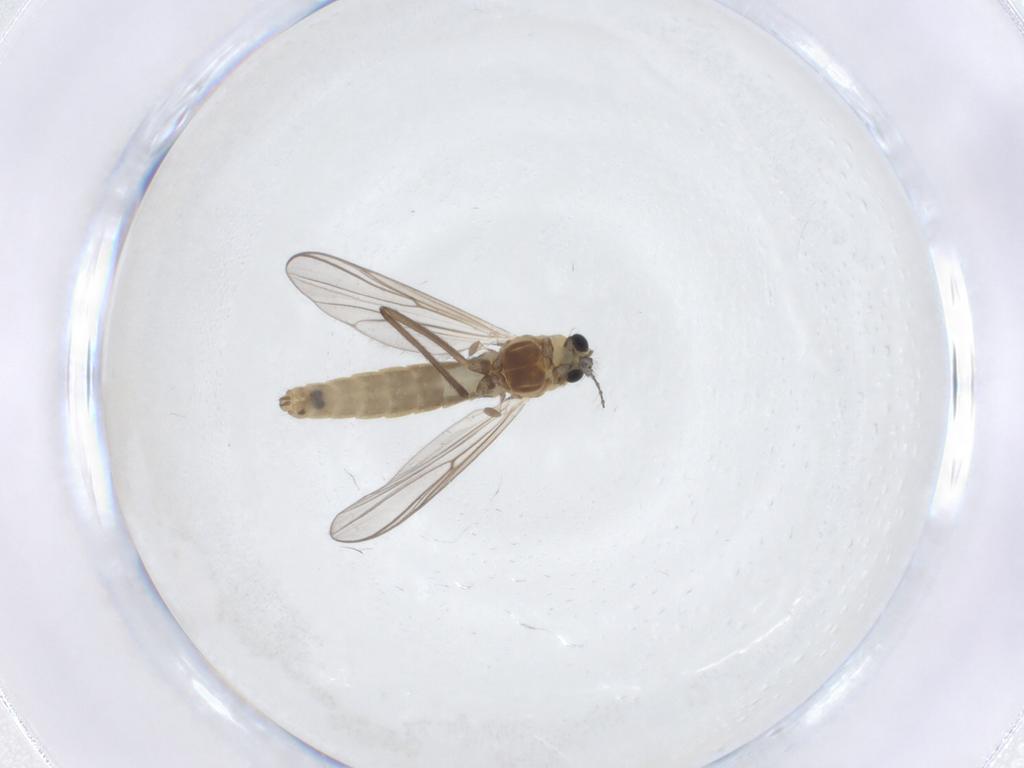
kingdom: Animalia
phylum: Arthropoda
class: Insecta
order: Diptera
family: Chironomidae
